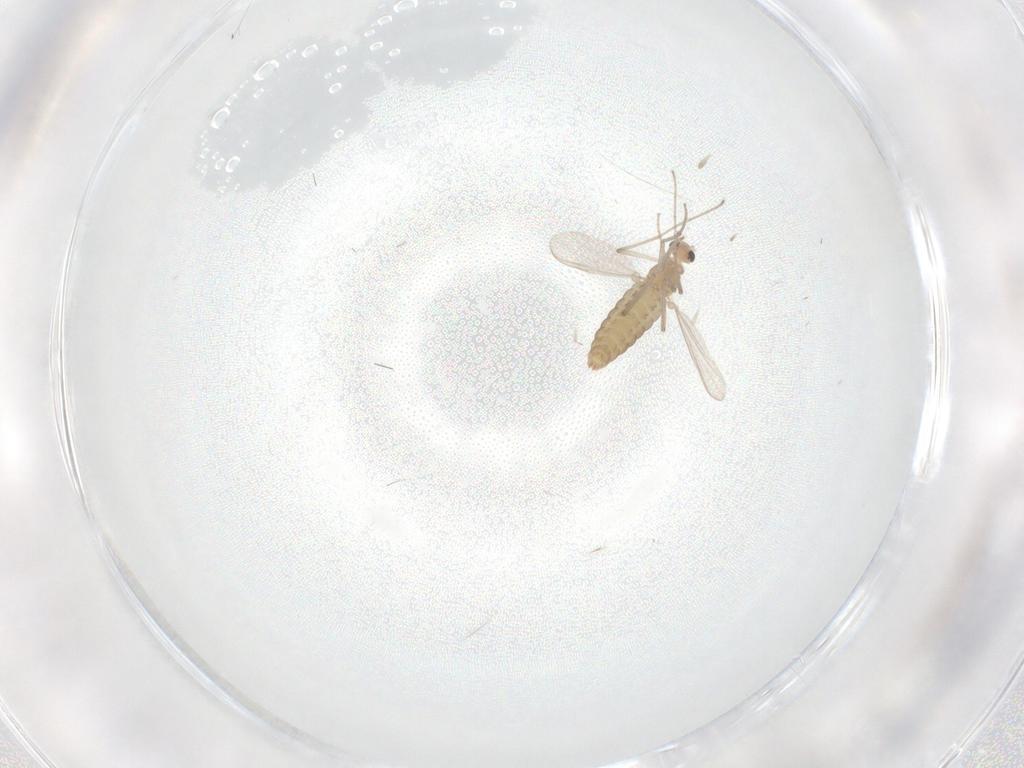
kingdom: Animalia
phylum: Arthropoda
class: Insecta
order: Diptera
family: Chironomidae
